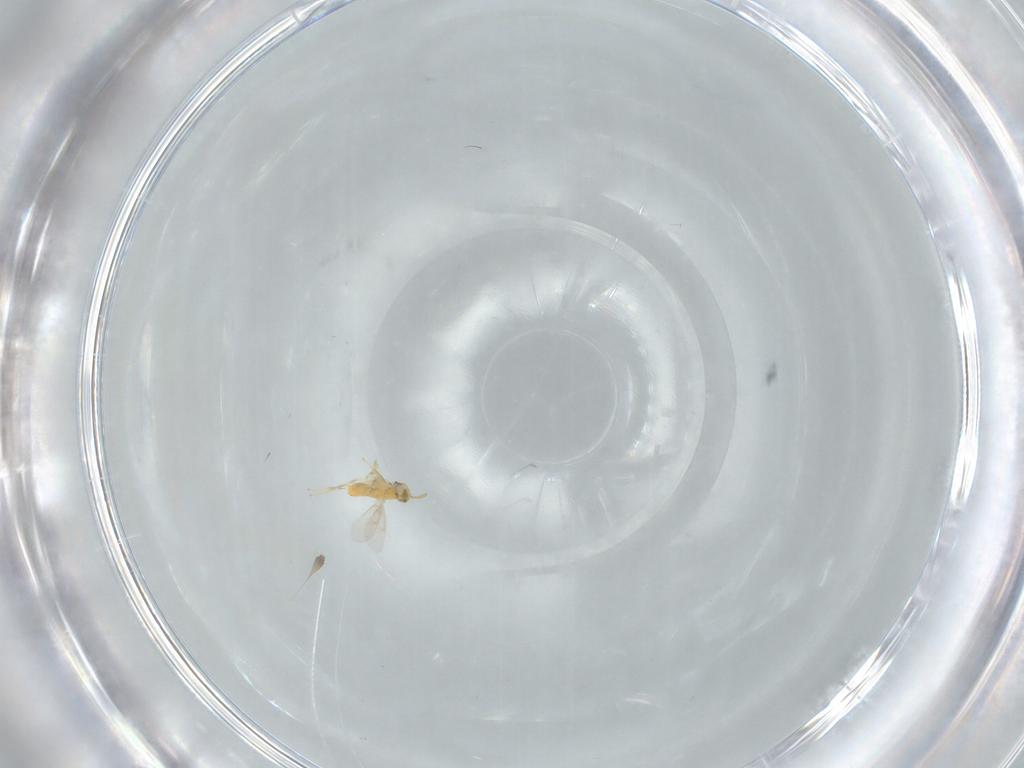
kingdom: Animalia
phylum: Arthropoda
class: Insecta
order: Hymenoptera
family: Aphelinidae
